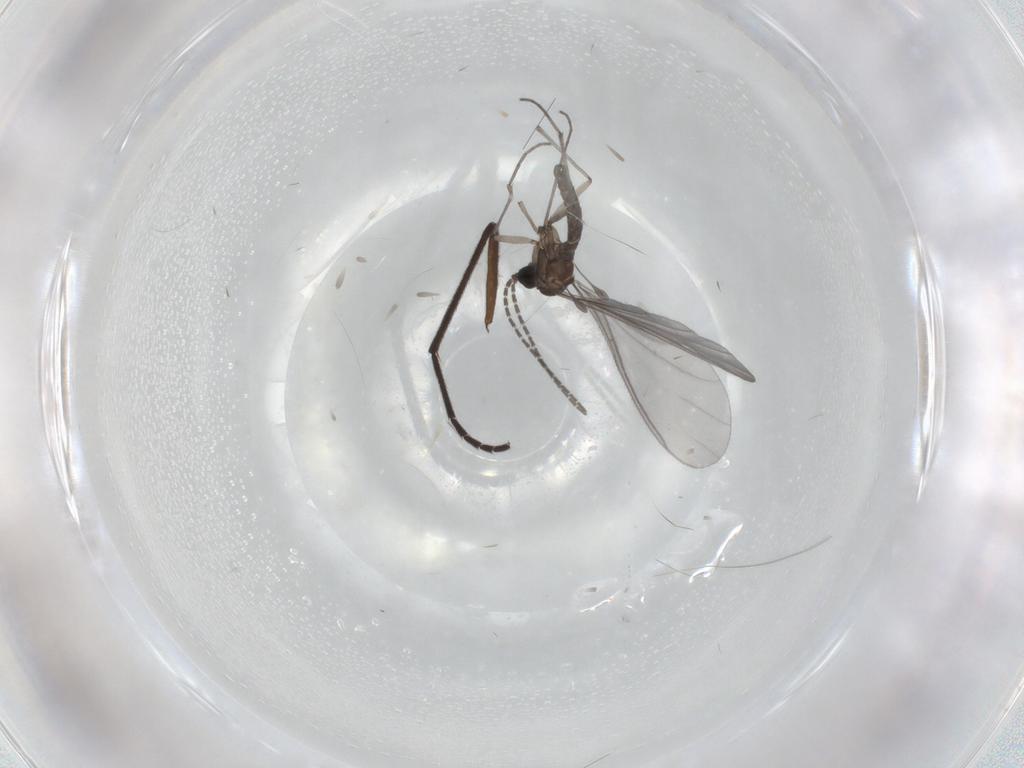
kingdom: Animalia
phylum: Arthropoda
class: Insecta
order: Diptera
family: Sciaridae
